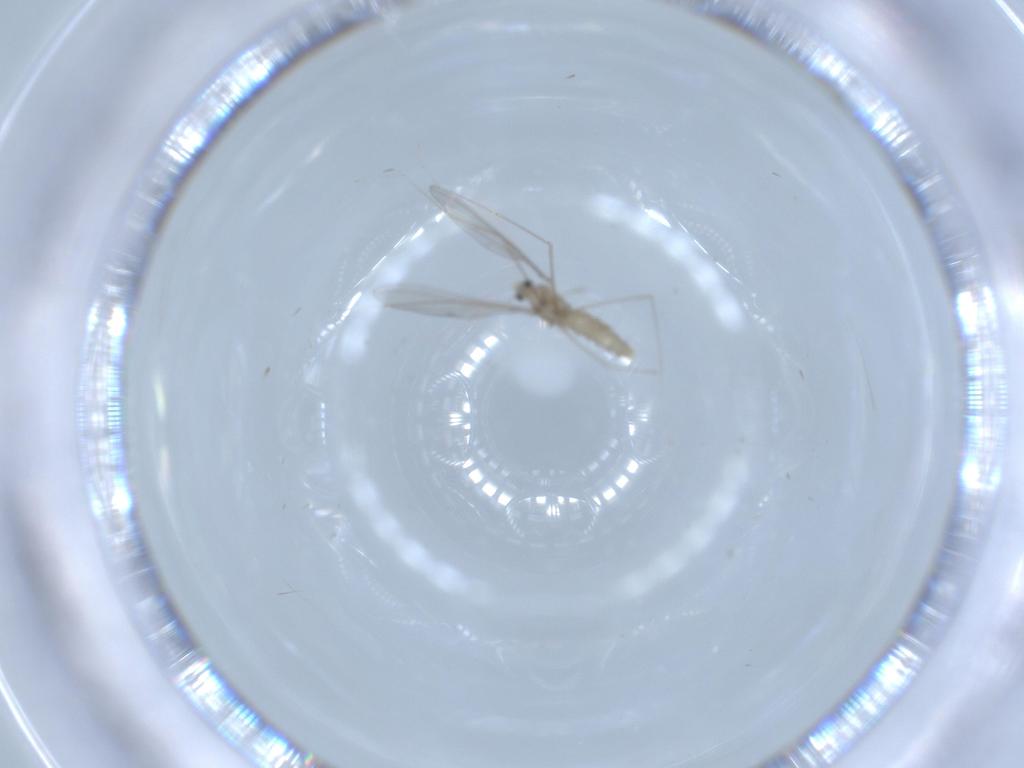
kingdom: Animalia
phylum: Arthropoda
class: Insecta
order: Diptera
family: Cecidomyiidae
